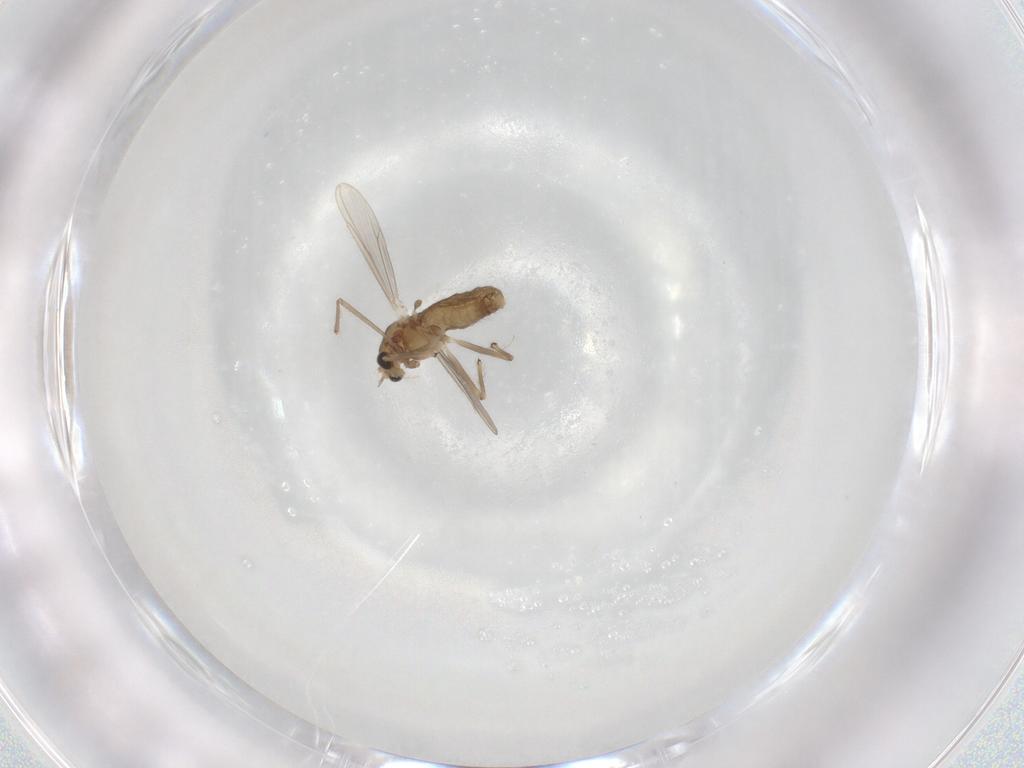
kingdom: Animalia
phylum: Arthropoda
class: Insecta
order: Diptera
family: Chironomidae
